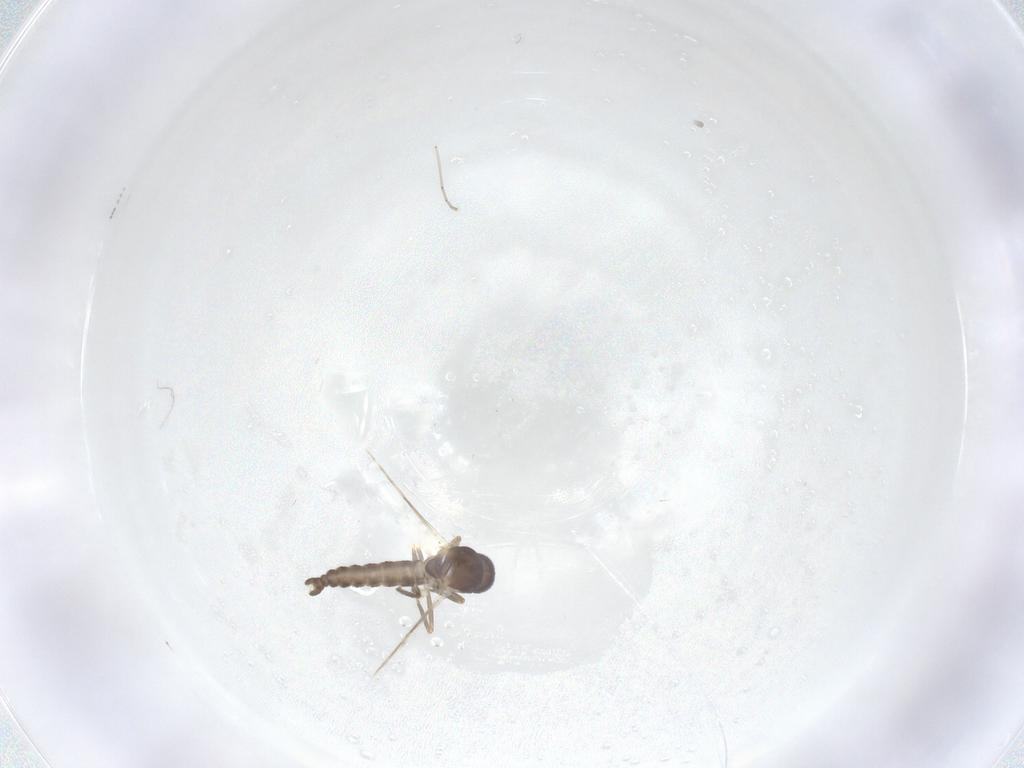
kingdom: Animalia
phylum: Arthropoda
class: Insecta
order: Diptera
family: Ceratopogonidae
